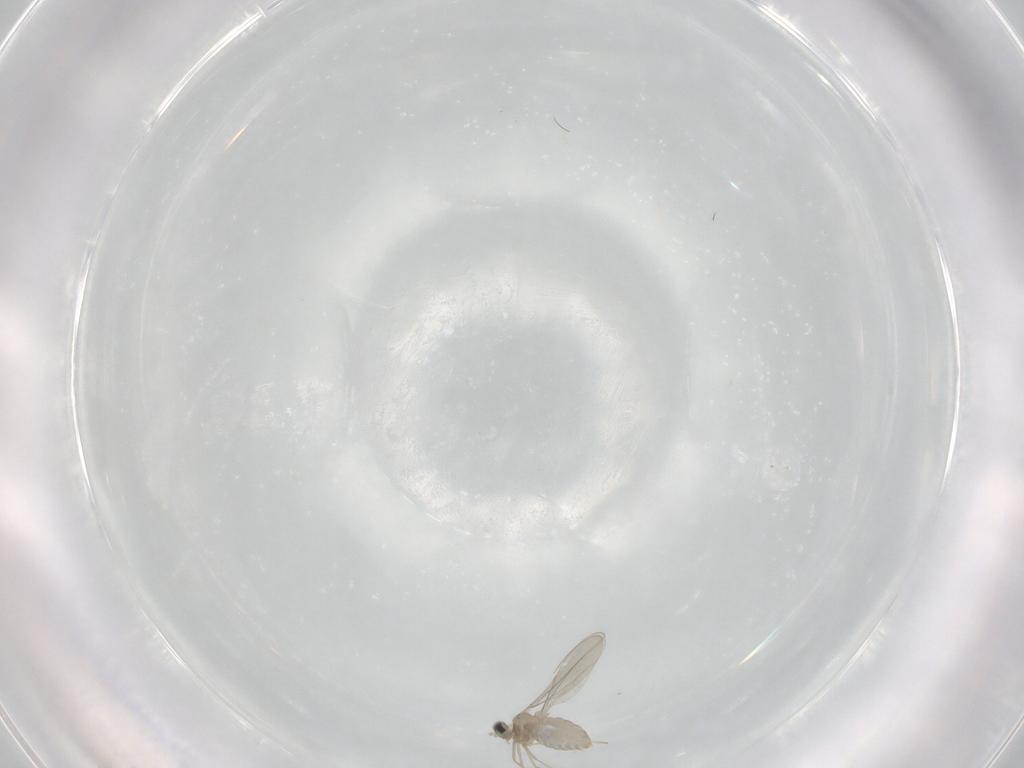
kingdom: Animalia
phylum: Arthropoda
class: Insecta
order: Diptera
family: Cecidomyiidae
